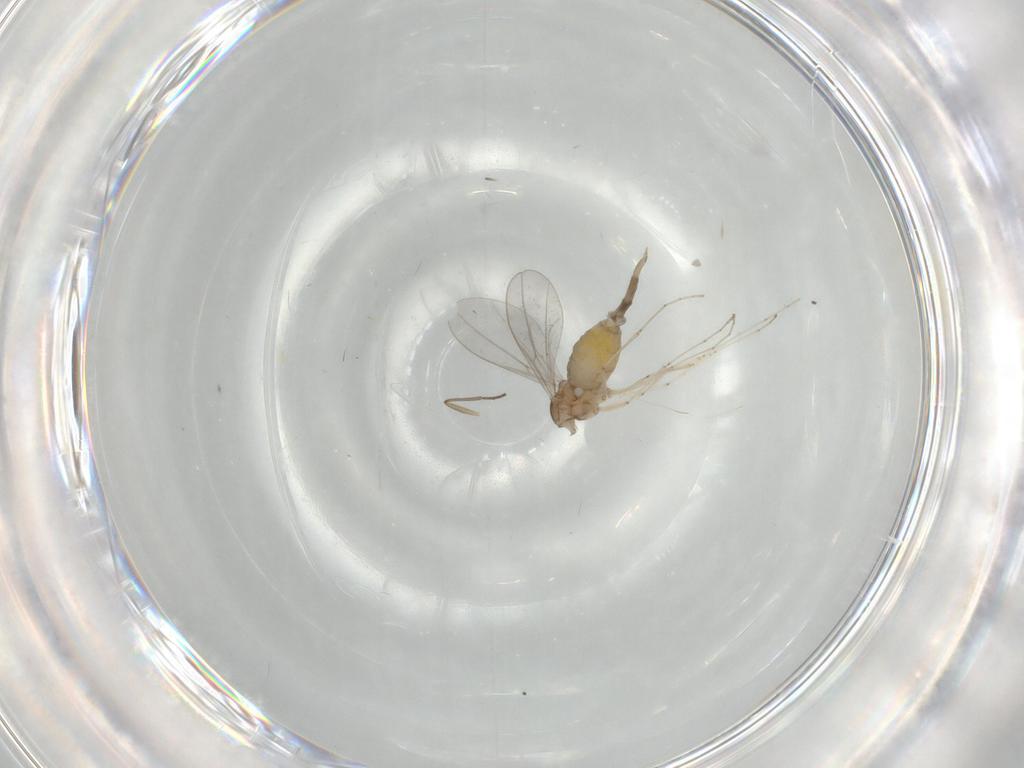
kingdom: Animalia
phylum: Arthropoda
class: Insecta
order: Diptera
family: Cecidomyiidae
